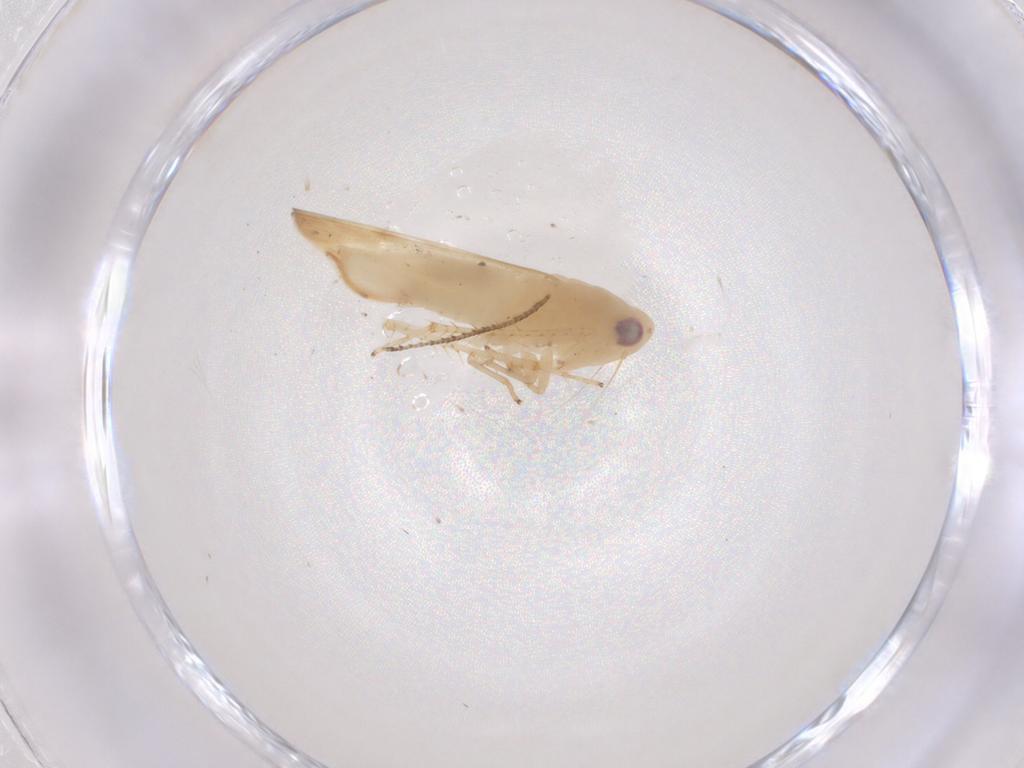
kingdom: Animalia
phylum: Arthropoda
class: Insecta
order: Hemiptera
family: Cicadellidae
